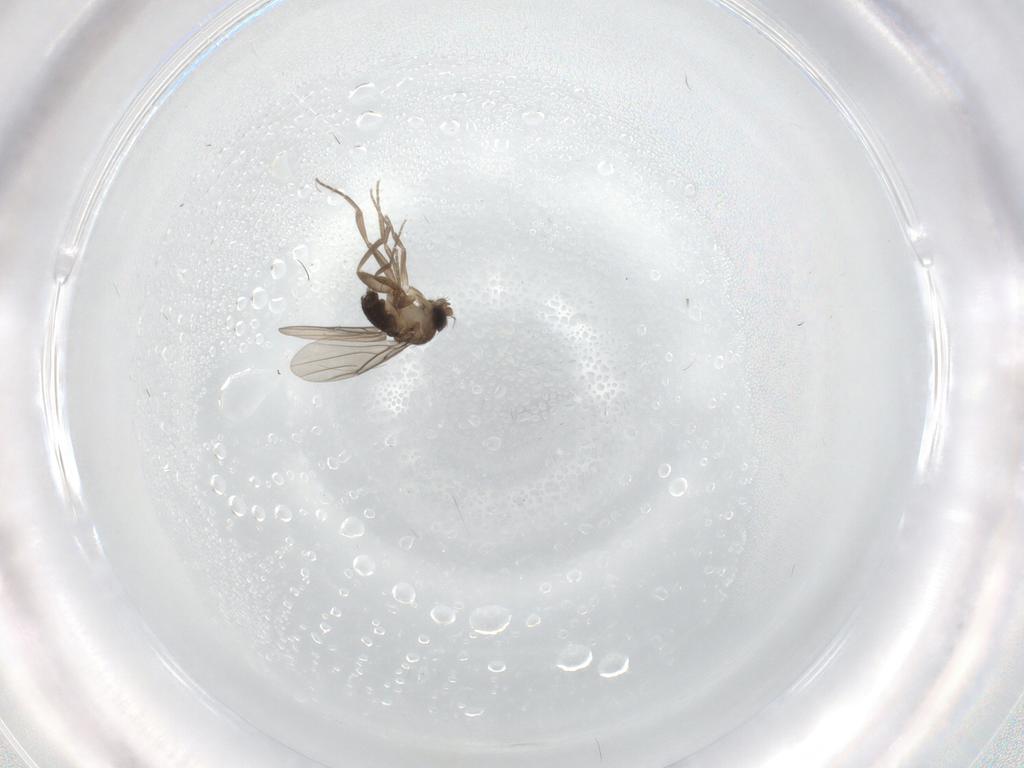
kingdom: Animalia
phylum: Arthropoda
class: Insecta
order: Diptera
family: Phoridae
